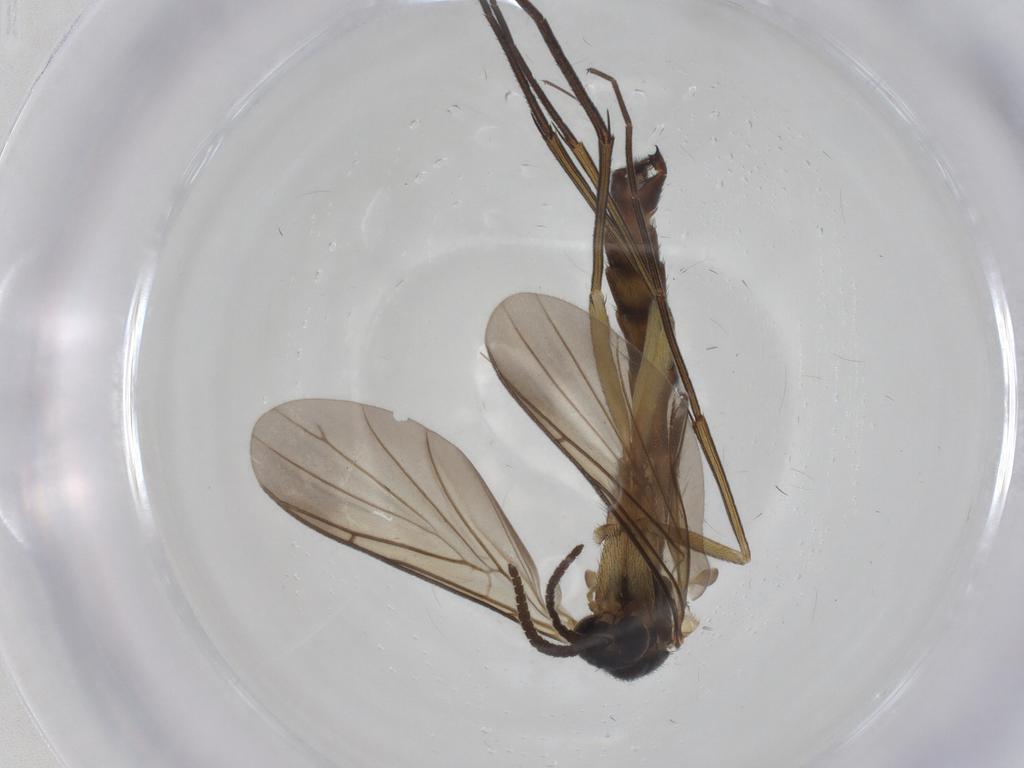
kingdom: Animalia
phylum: Arthropoda
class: Insecta
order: Diptera
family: Keroplatidae
